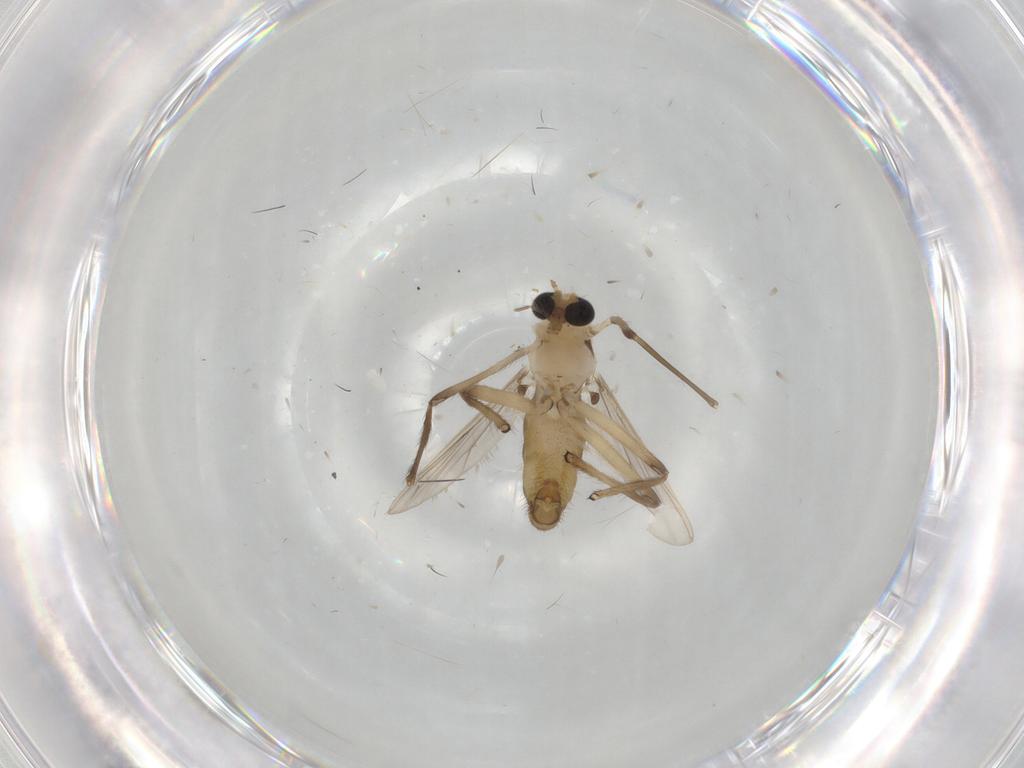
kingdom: Animalia
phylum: Arthropoda
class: Insecta
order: Diptera
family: Chironomidae
